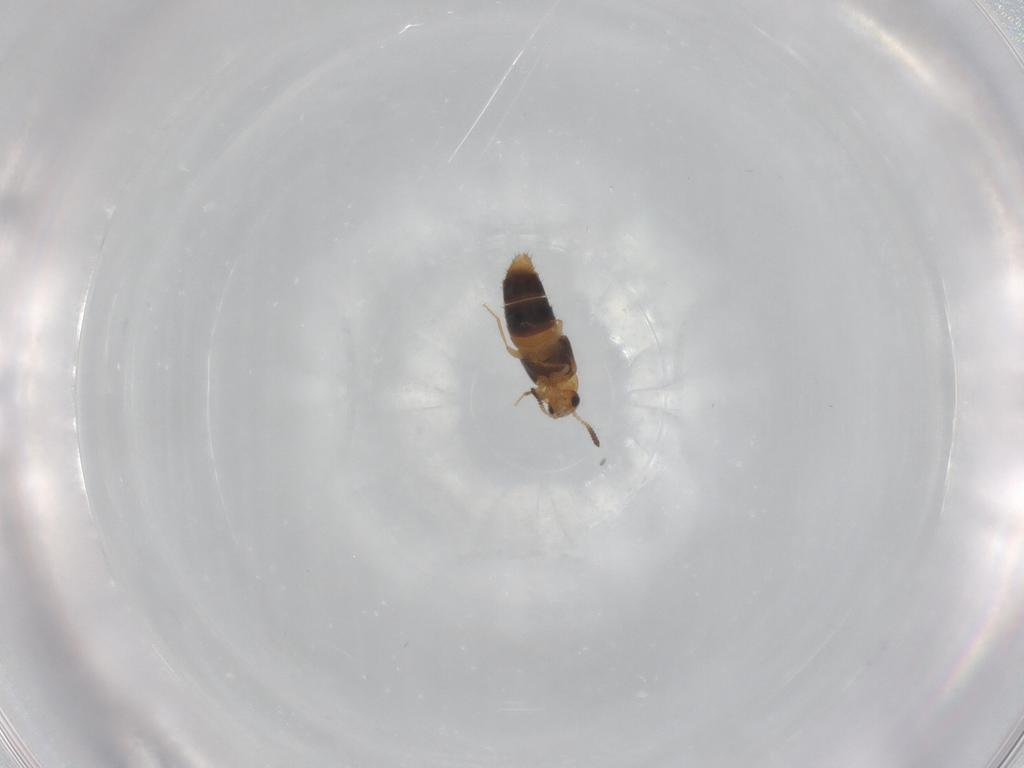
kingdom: Animalia
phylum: Arthropoda
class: Insecta
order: Coleoptera
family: Staphylinidae
